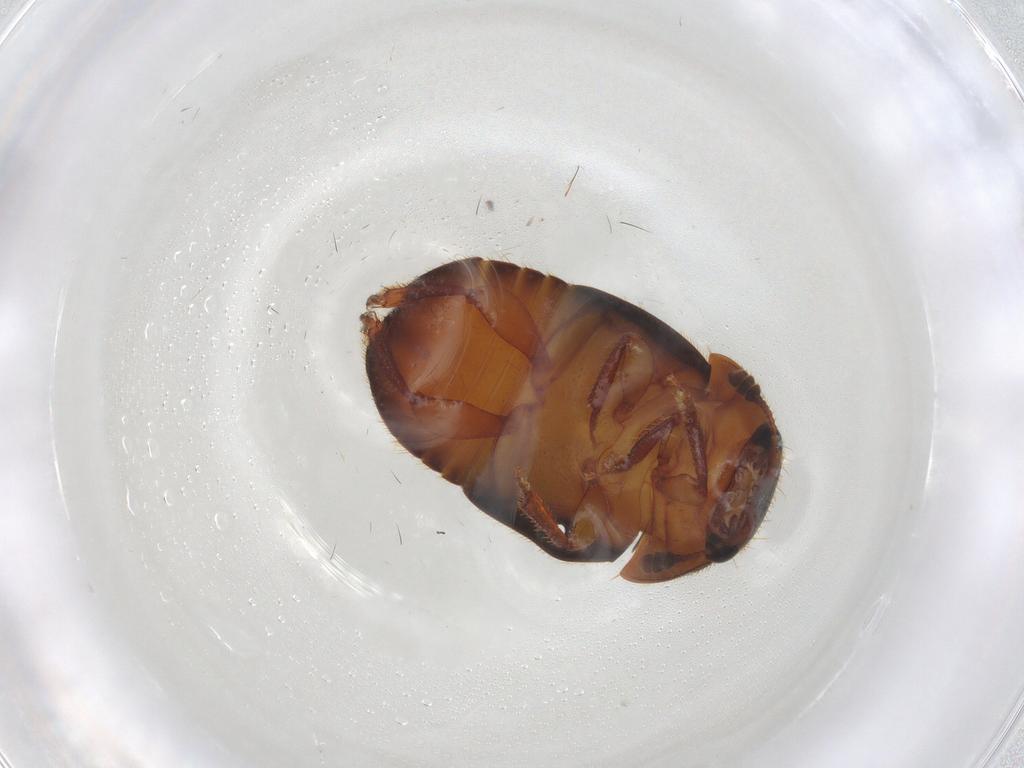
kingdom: Animalia
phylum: Arthropoda
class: Insecta
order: Coleoptera
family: Nitidulidae
